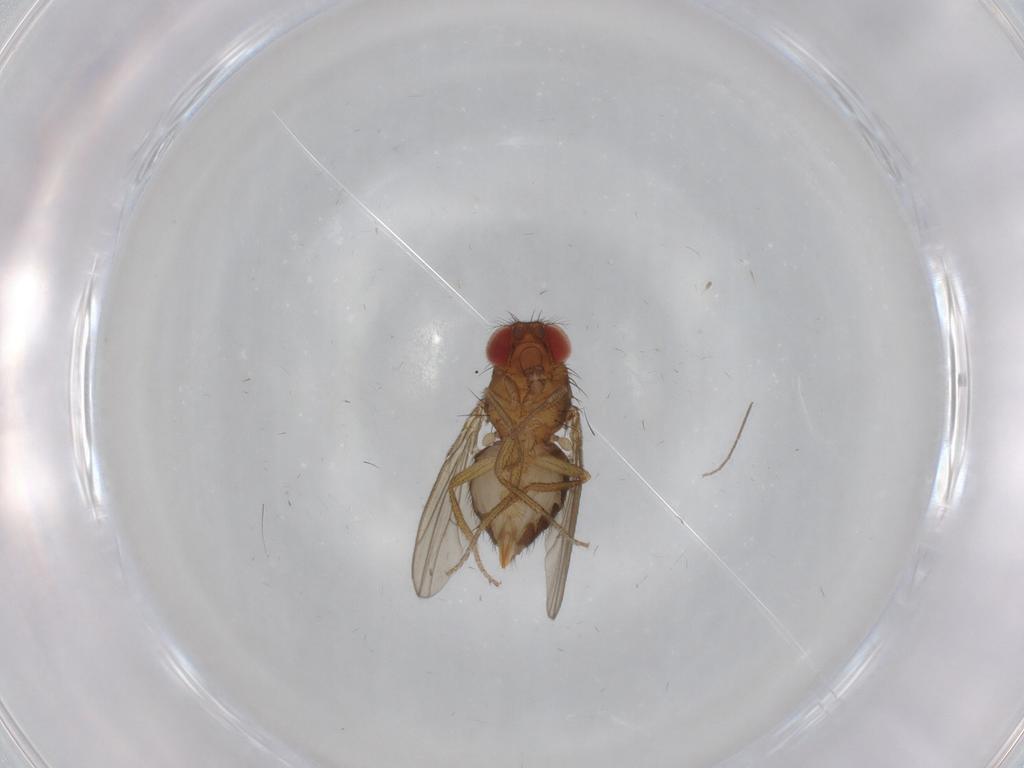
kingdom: Animalia
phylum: Arthropoda
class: Insecta
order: Diptera
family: Drosophilidae
